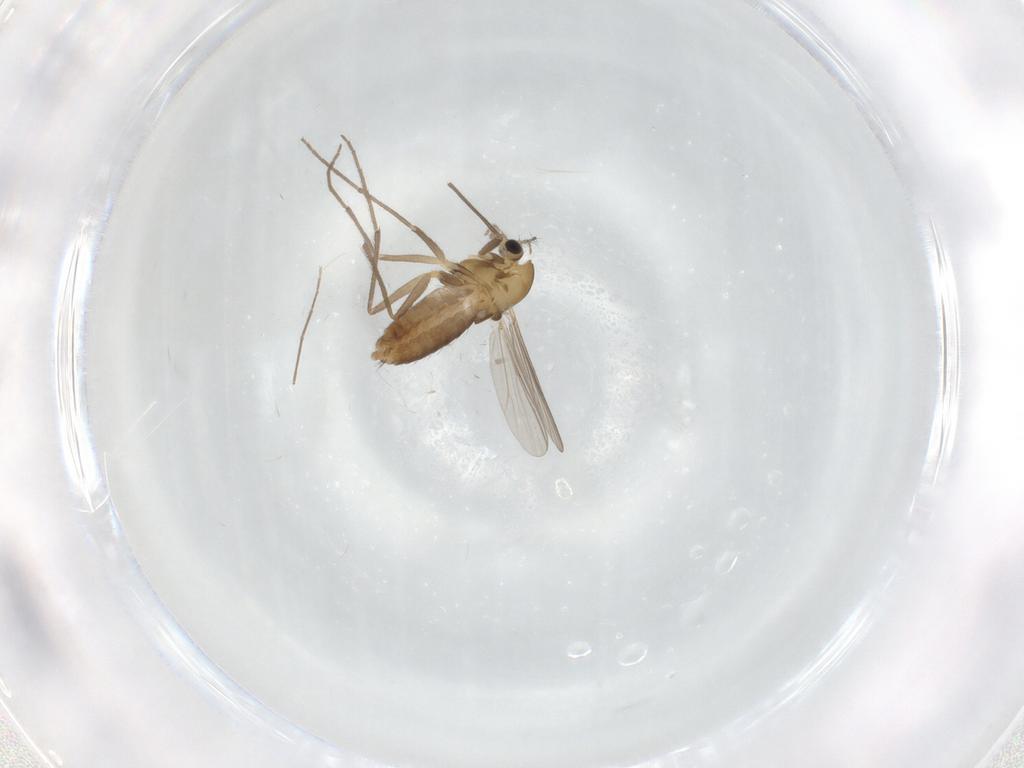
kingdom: Animalia
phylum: Arthropoda
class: Insecta
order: Diptera
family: Chironomidae
